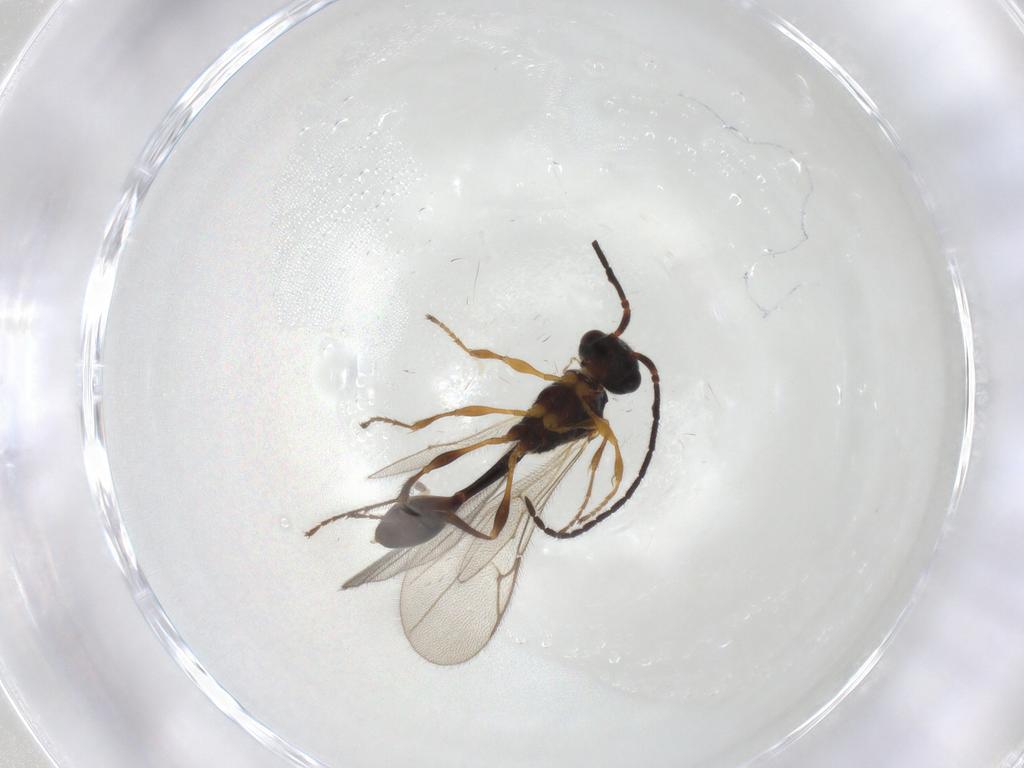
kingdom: Animalia
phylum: Arthropoda
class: Insecta
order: Hymenoptera
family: Diapriidae
